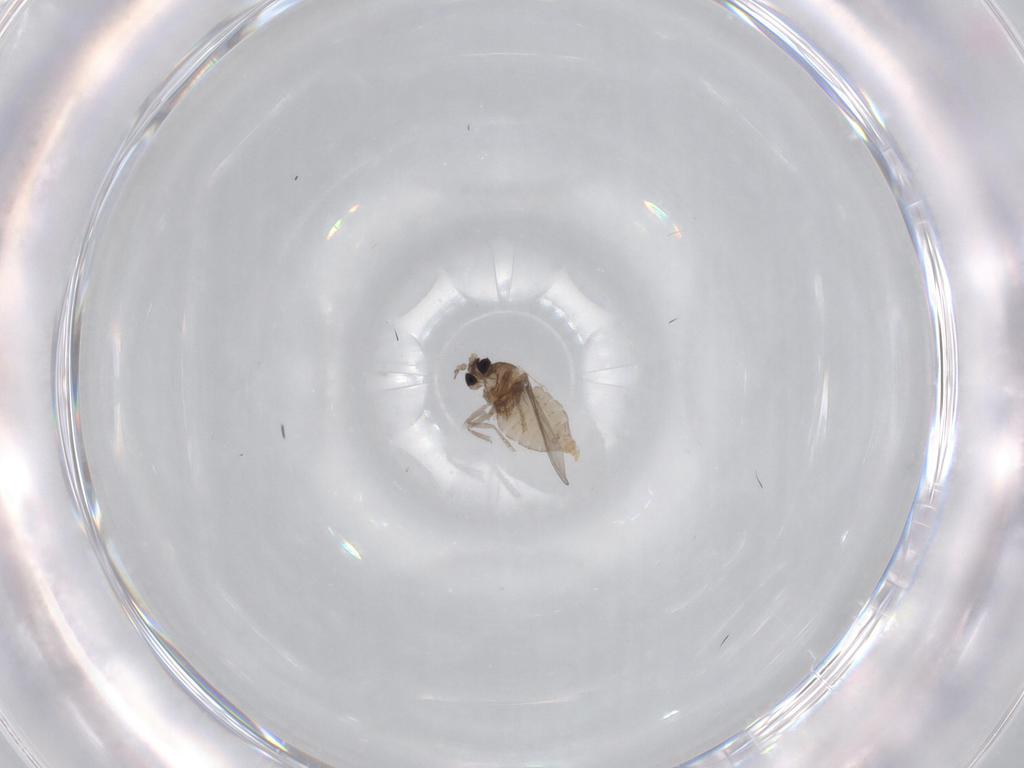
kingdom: Animalia
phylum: Arthropoda
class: Insecta
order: Diptera
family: Cecidomyiidae
